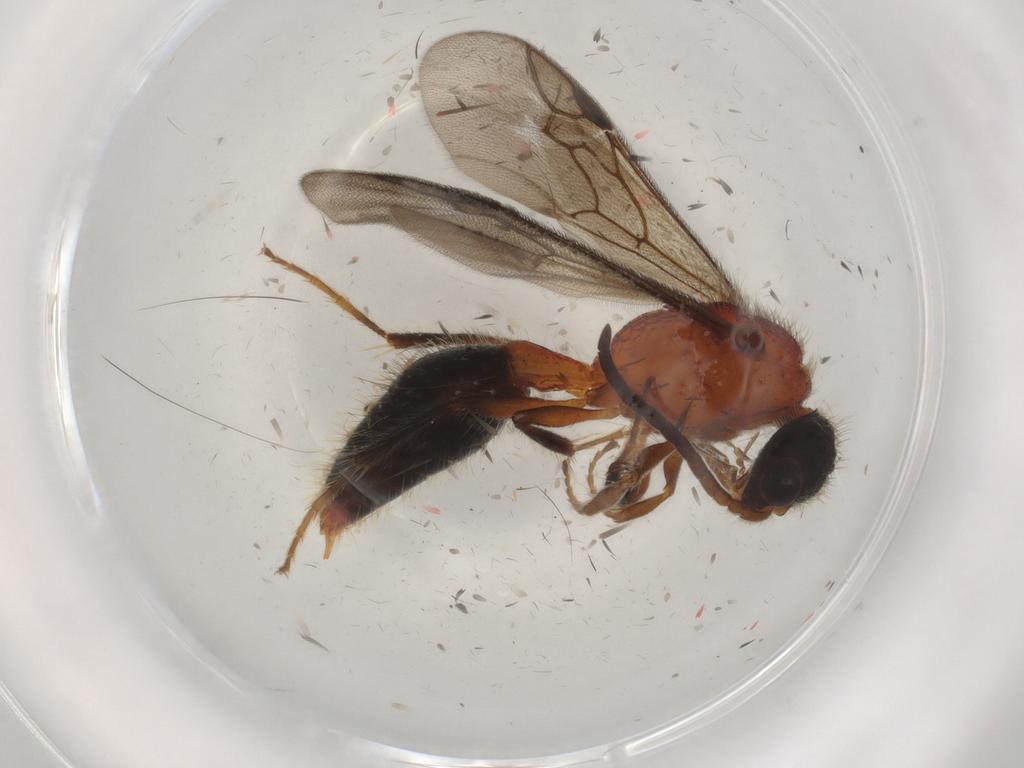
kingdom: Animalia
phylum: Arthropoda
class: Insecta
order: Hymenoptera
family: Mutillidae
